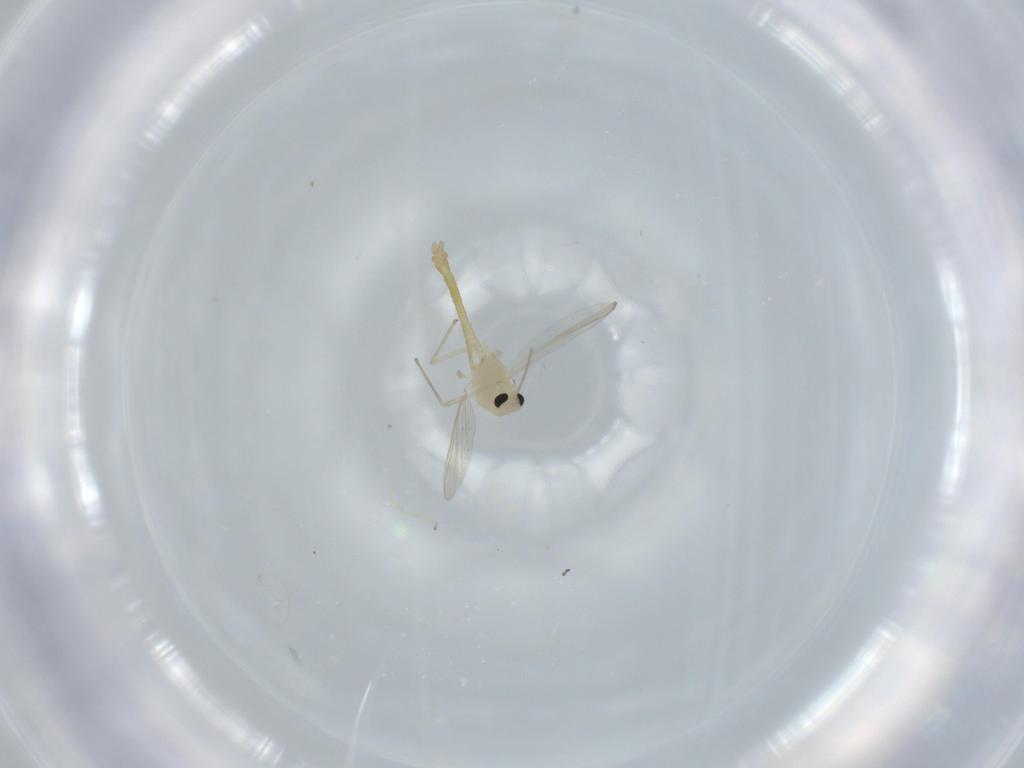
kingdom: Animalia
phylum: Arthropoda
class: Insecta
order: Diptera
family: Chironomidae
